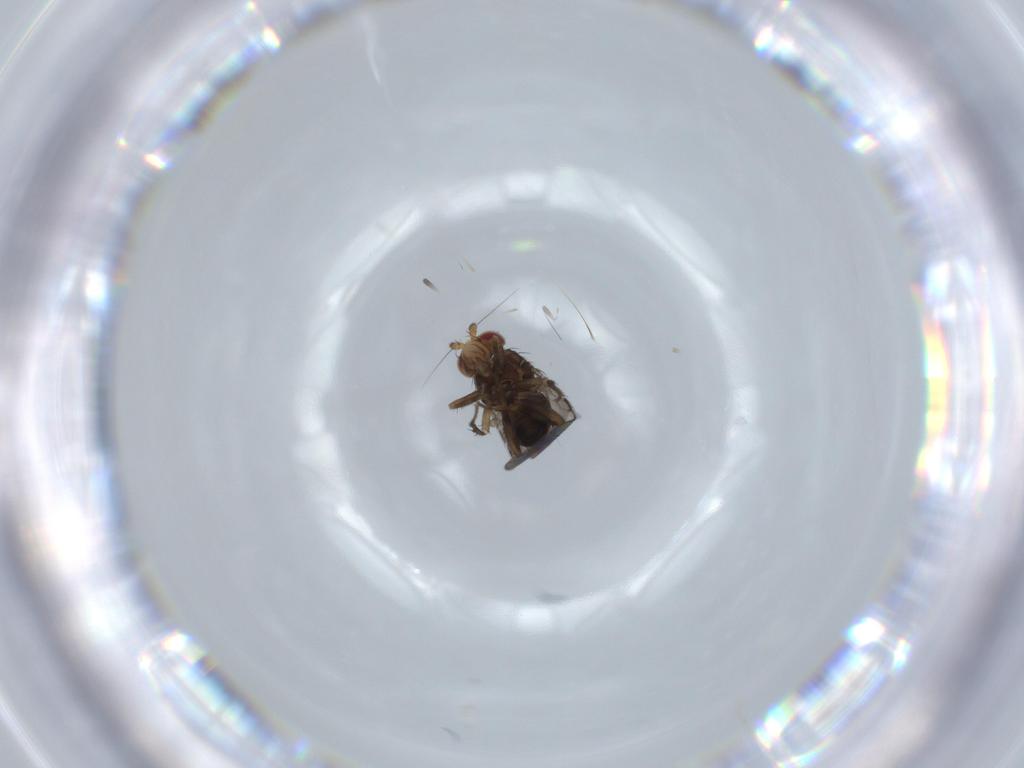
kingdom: Animalia
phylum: Arthropoda
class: Insecta
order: Diptera
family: Sphaeroceridae
